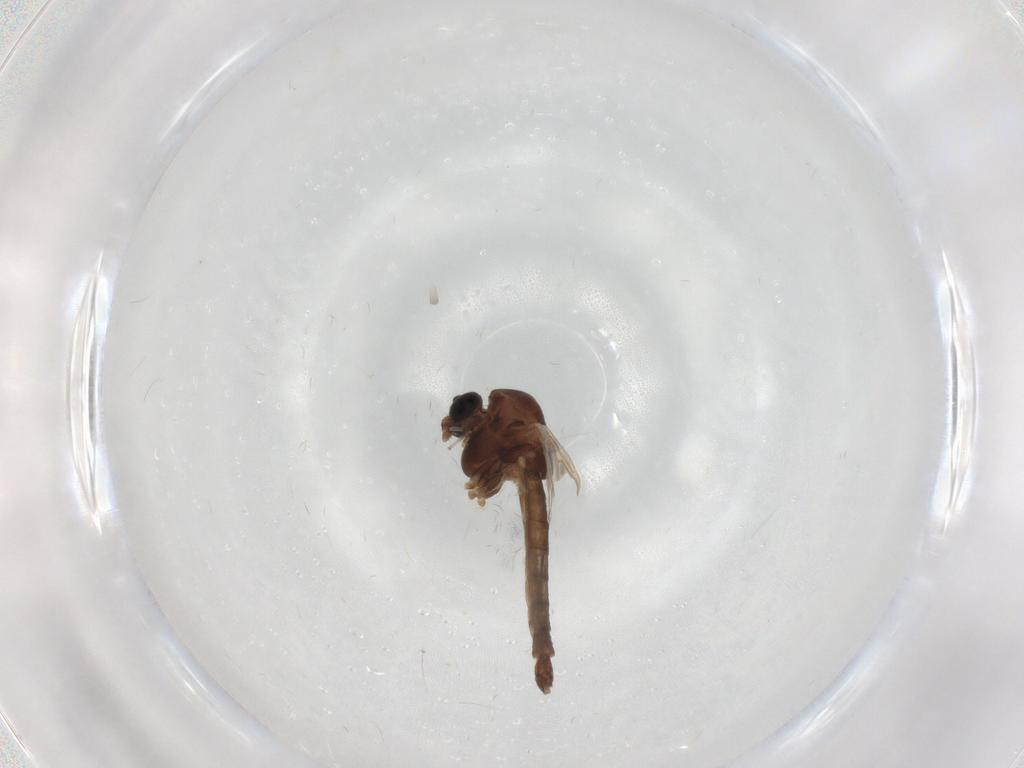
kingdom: Animalia
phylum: Arthropoda
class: Insecta
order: Diptera
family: Chironomidae
